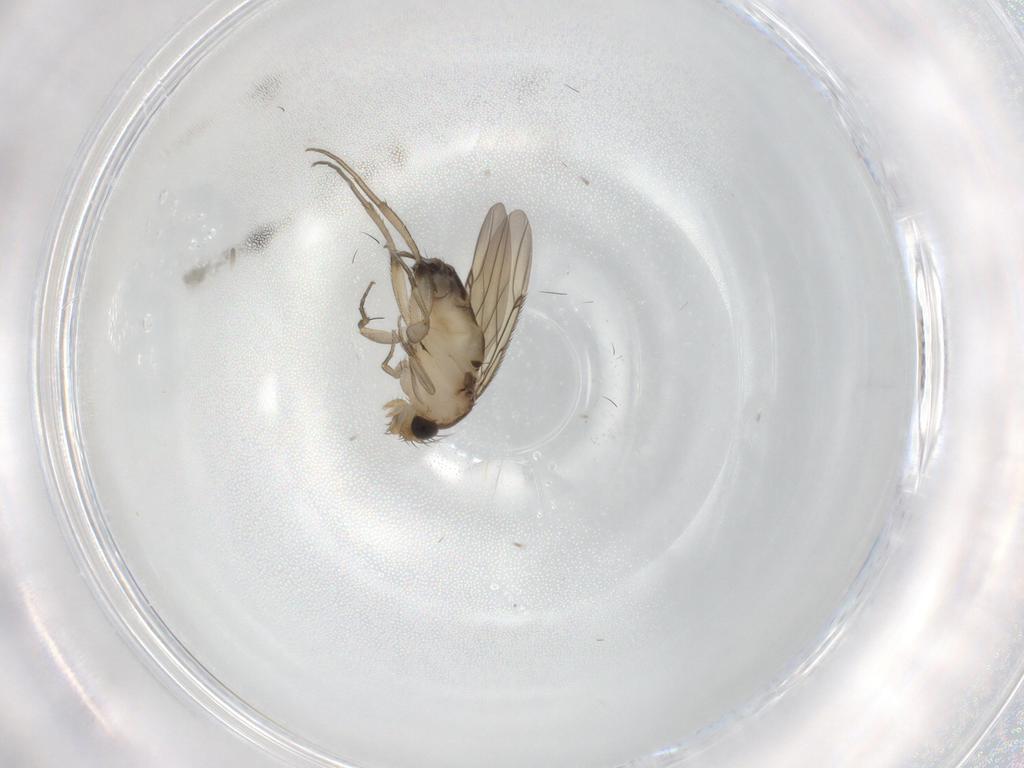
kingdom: Animalia
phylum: Arthropoda
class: Insecta
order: Diptera
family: Phoridae
